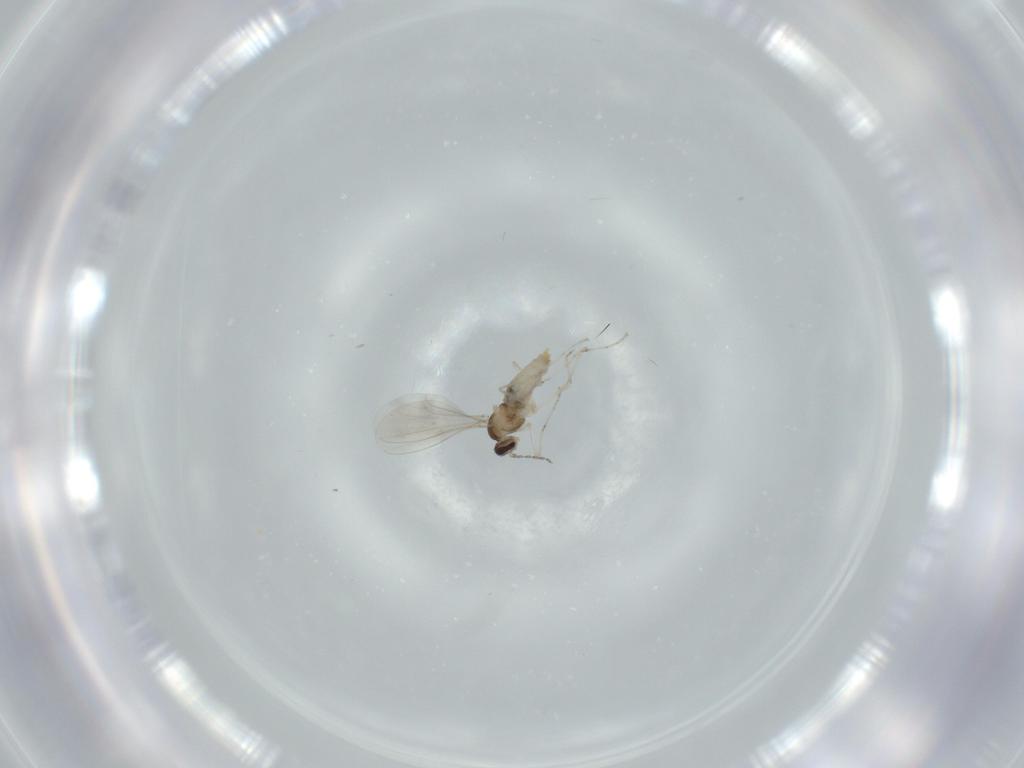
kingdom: Animalia
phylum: Arthropoda
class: Insecta
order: Diptera
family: Cecidomyiidae
